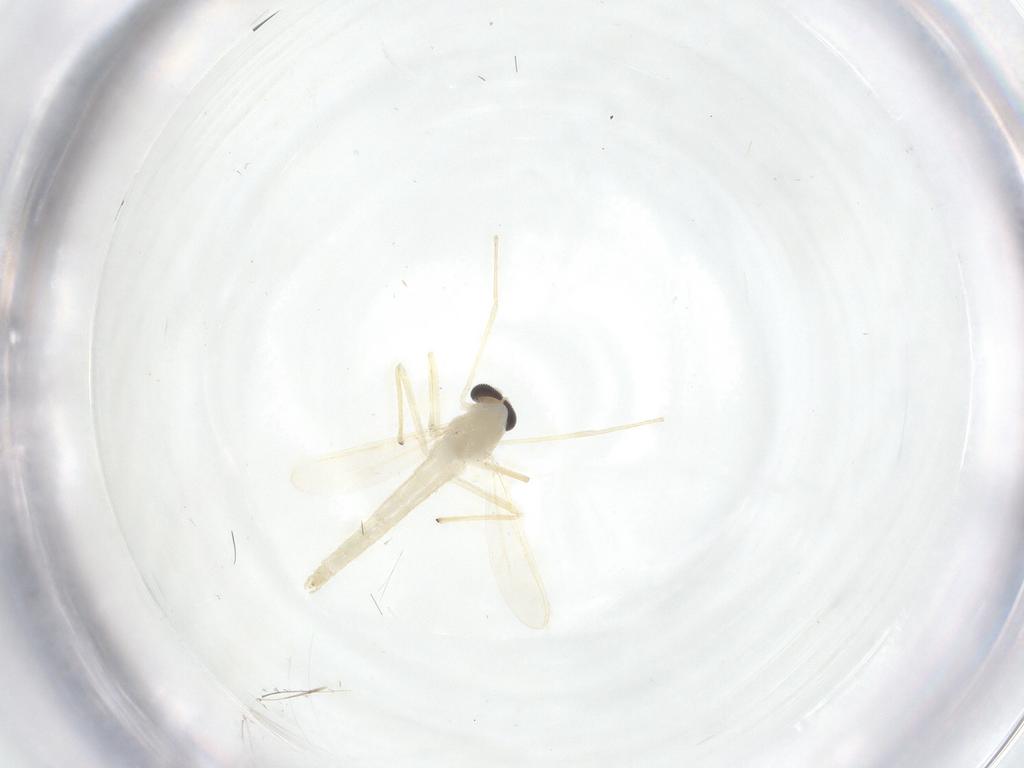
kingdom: Animalia
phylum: Arthropoda
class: Insecta
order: Diptera
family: Chironomidae
